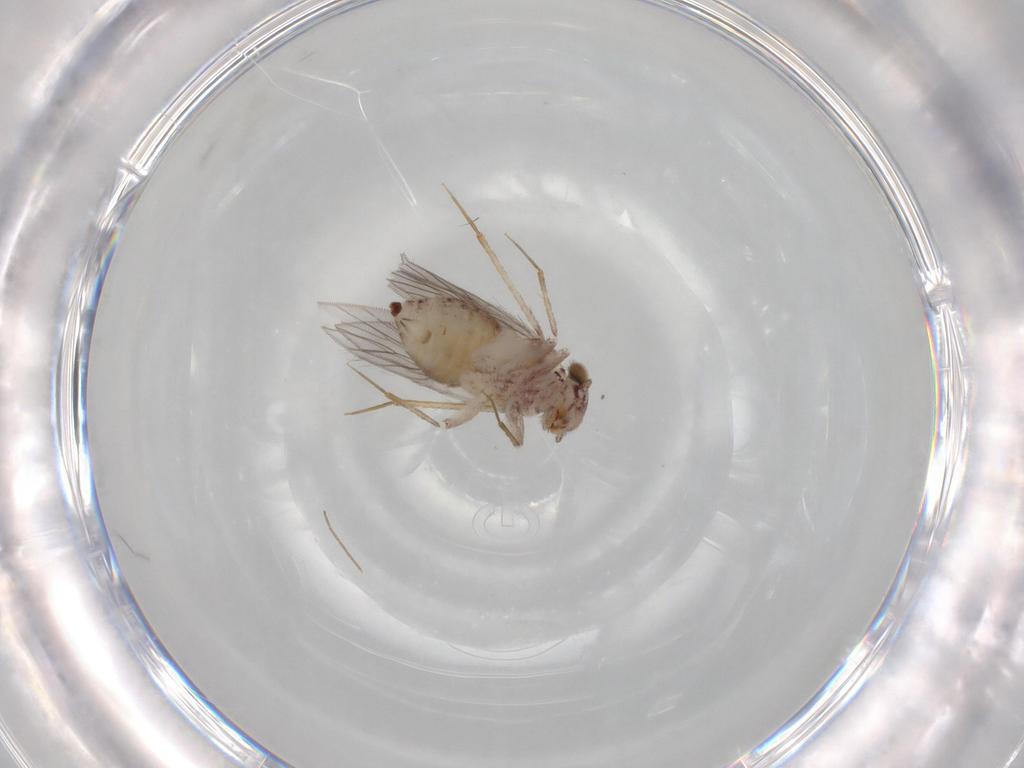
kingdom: Animalia
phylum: Arthropoda
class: Insecta
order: Psocodea
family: Lepidopsocidae
